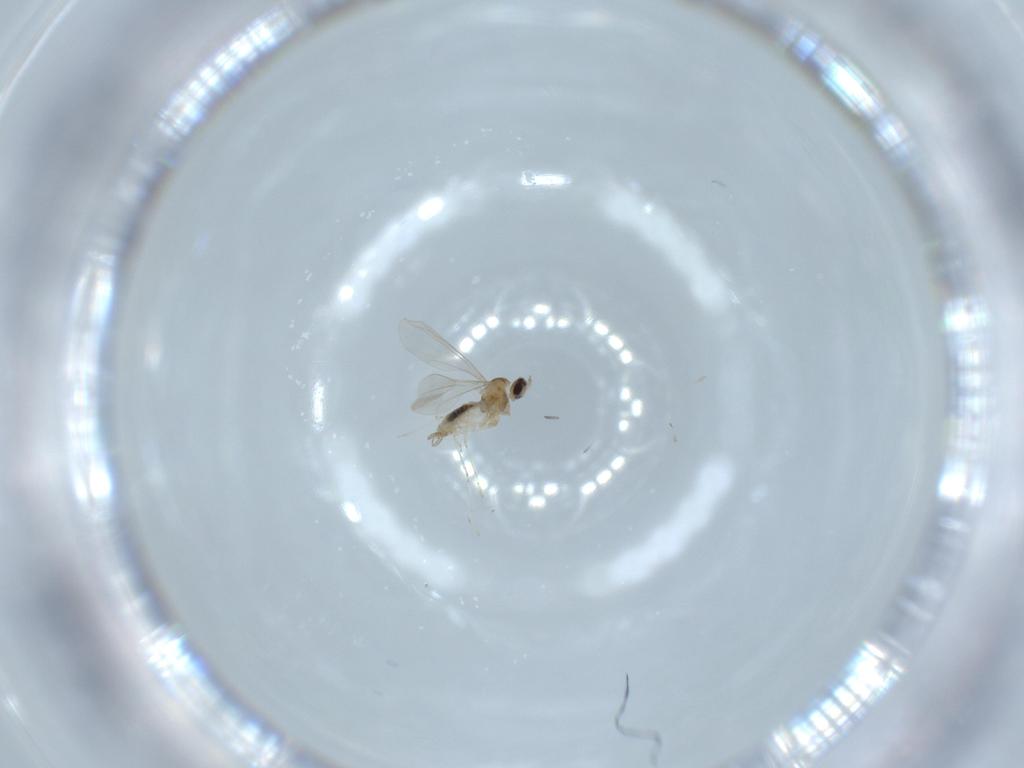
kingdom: Animalia
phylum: Arthropoda
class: Insecta
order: Diptera
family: Cecidomyiidae
